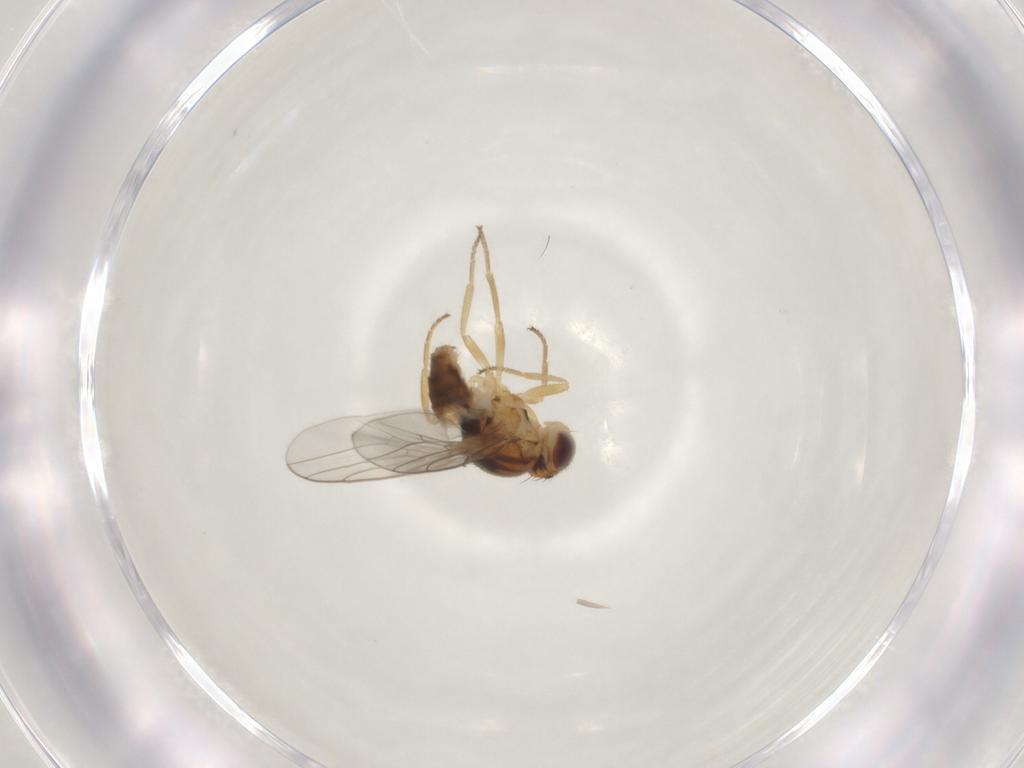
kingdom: Animalia
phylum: Arthropoda
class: Insecta
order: Diptera
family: Chloropidae
